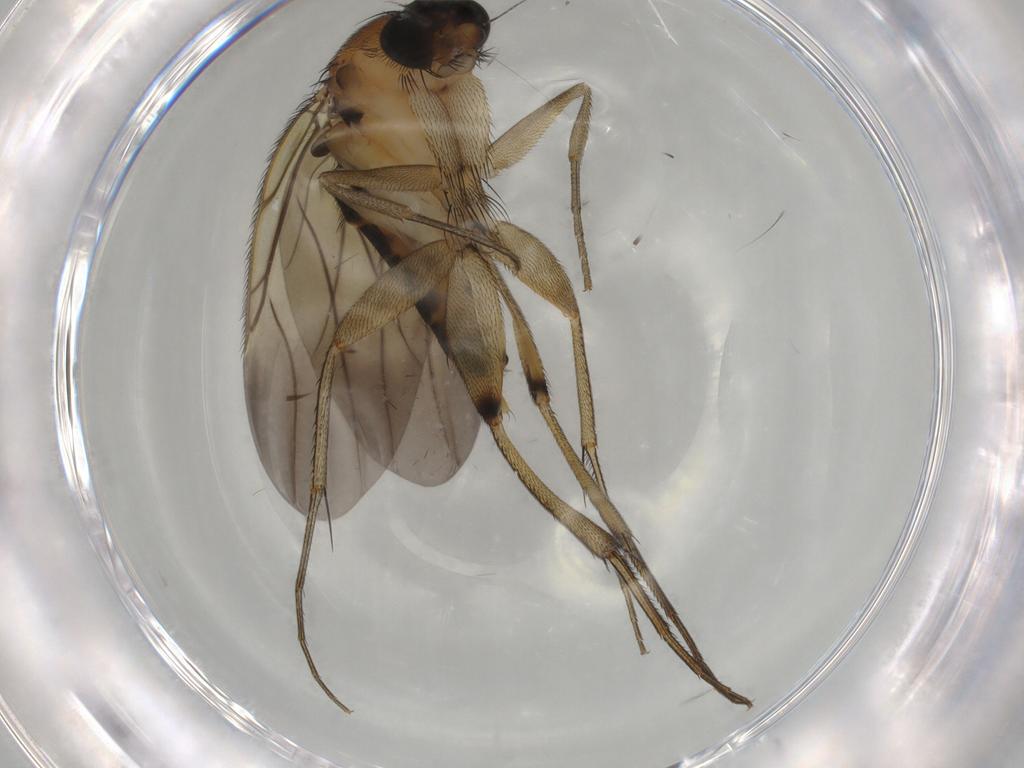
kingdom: Animalia
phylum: Arthropoda
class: Insecta
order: Diptera
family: Phoridae
